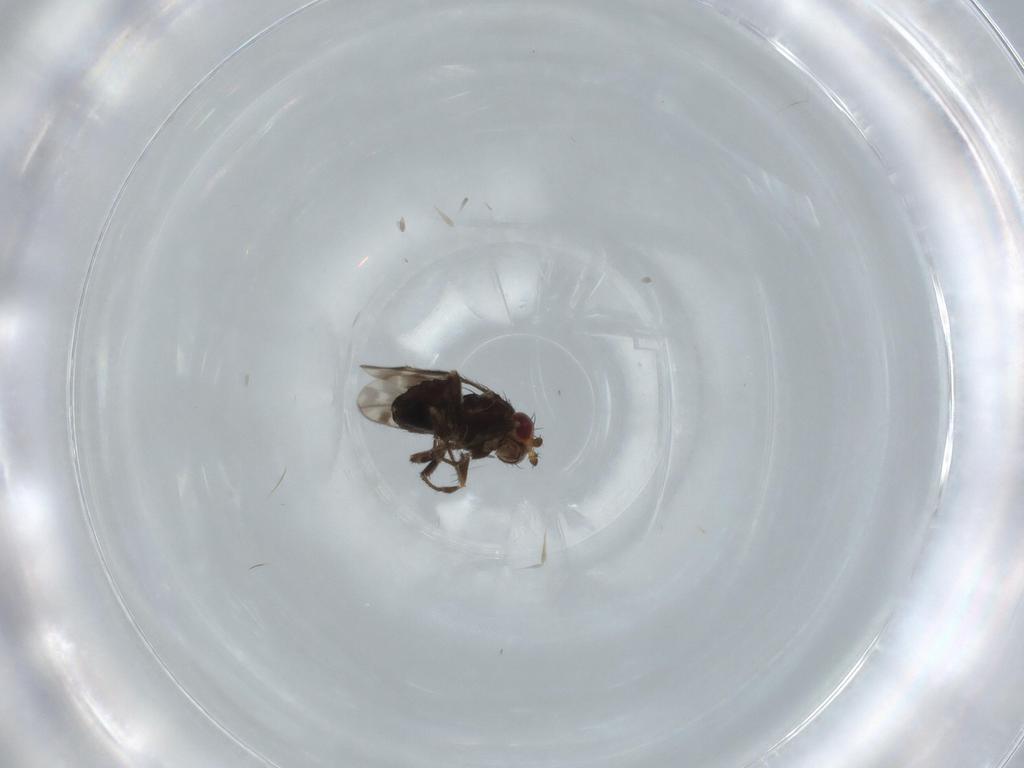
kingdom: Animalia
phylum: Arthropoda
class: Insecta
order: Diptera
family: Sphaeroceridae
